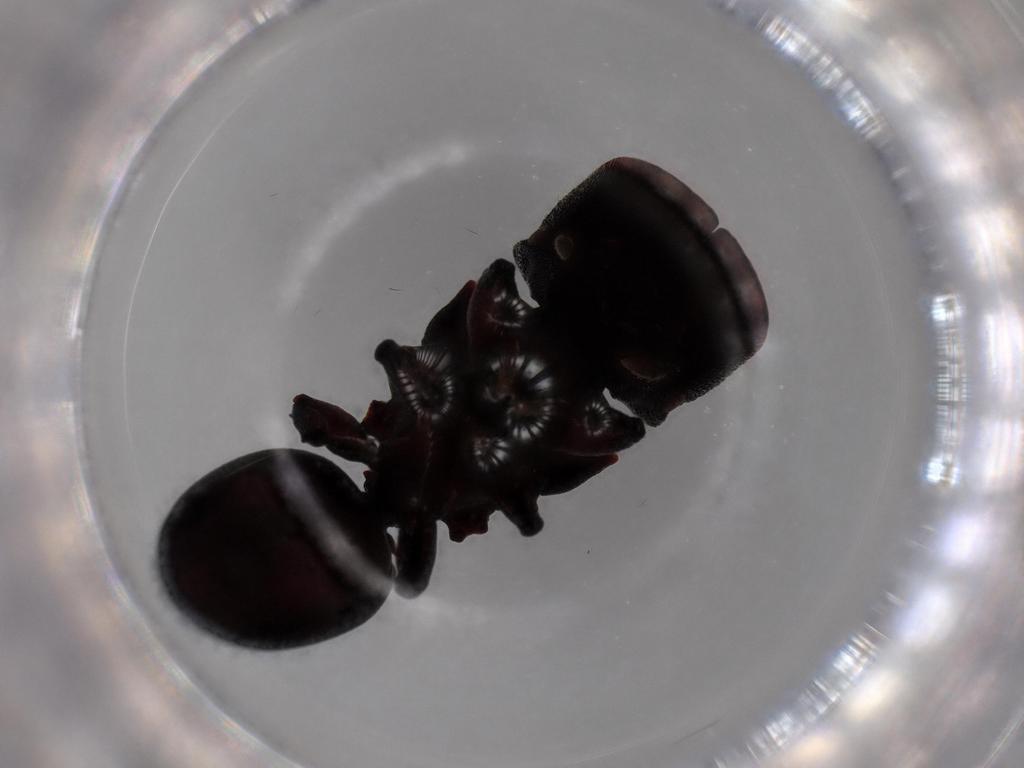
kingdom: Animalia
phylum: Arthropoda
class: Insecta
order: Hymenoptera
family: Formicidae
